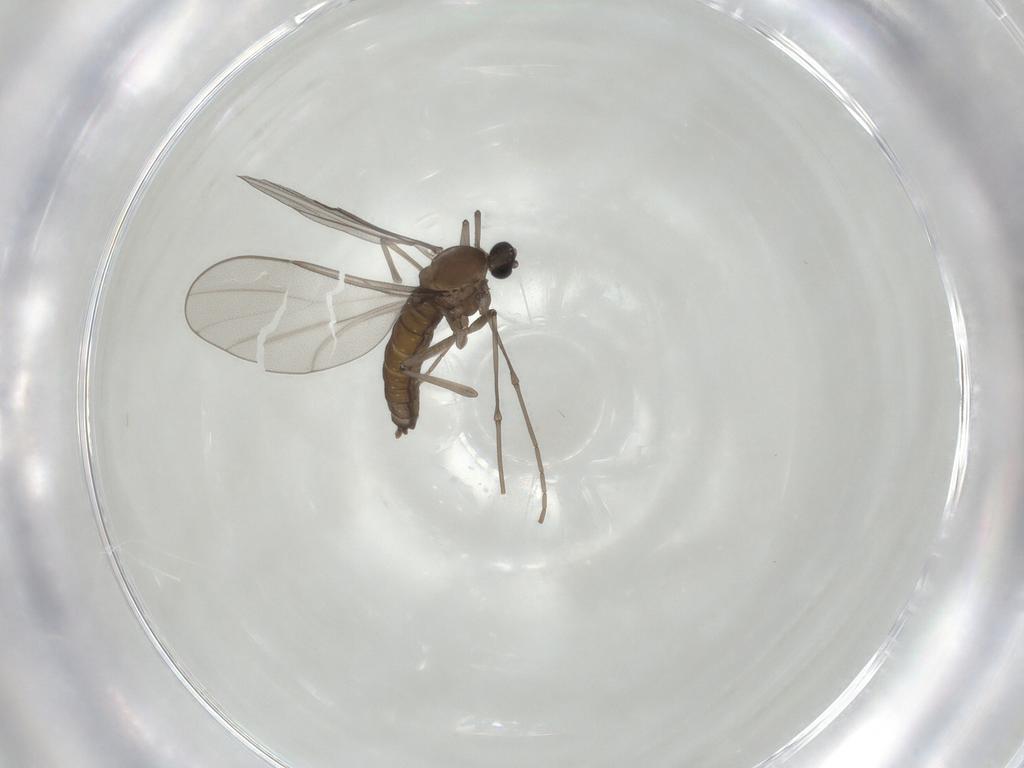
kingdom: Animalia
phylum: Arthropoda
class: Insecta
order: Diptera
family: Cecidomyiidae
